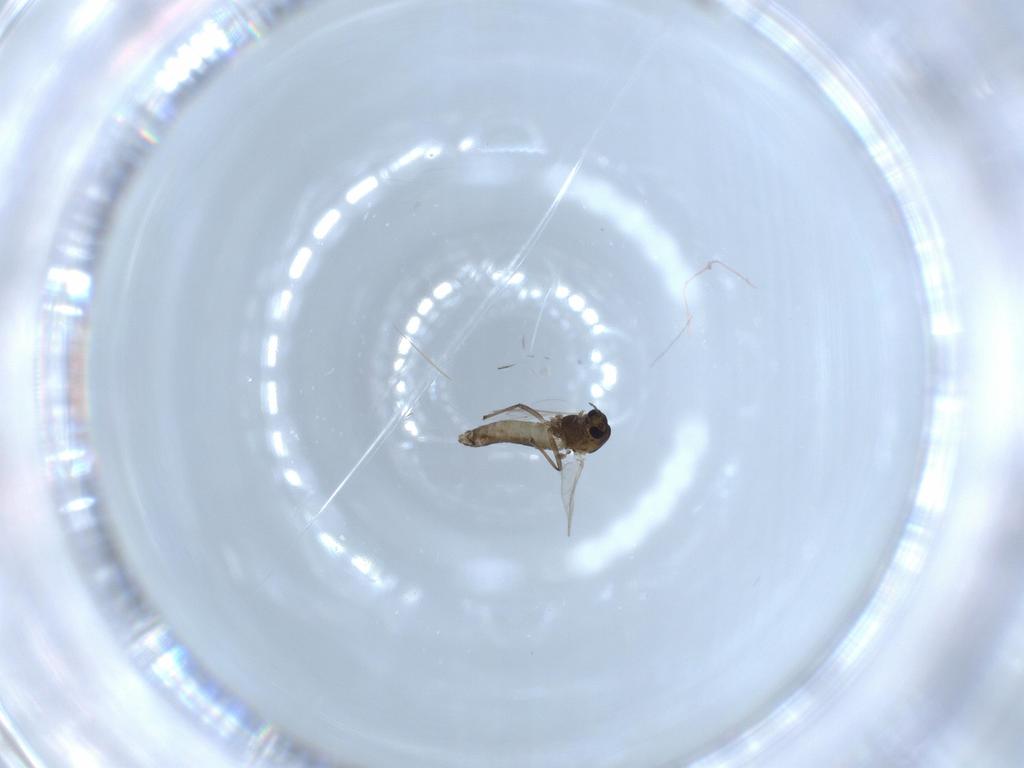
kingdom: Animalia
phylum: Arthropoda
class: Insecta
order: Diptera
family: Chironomidae
